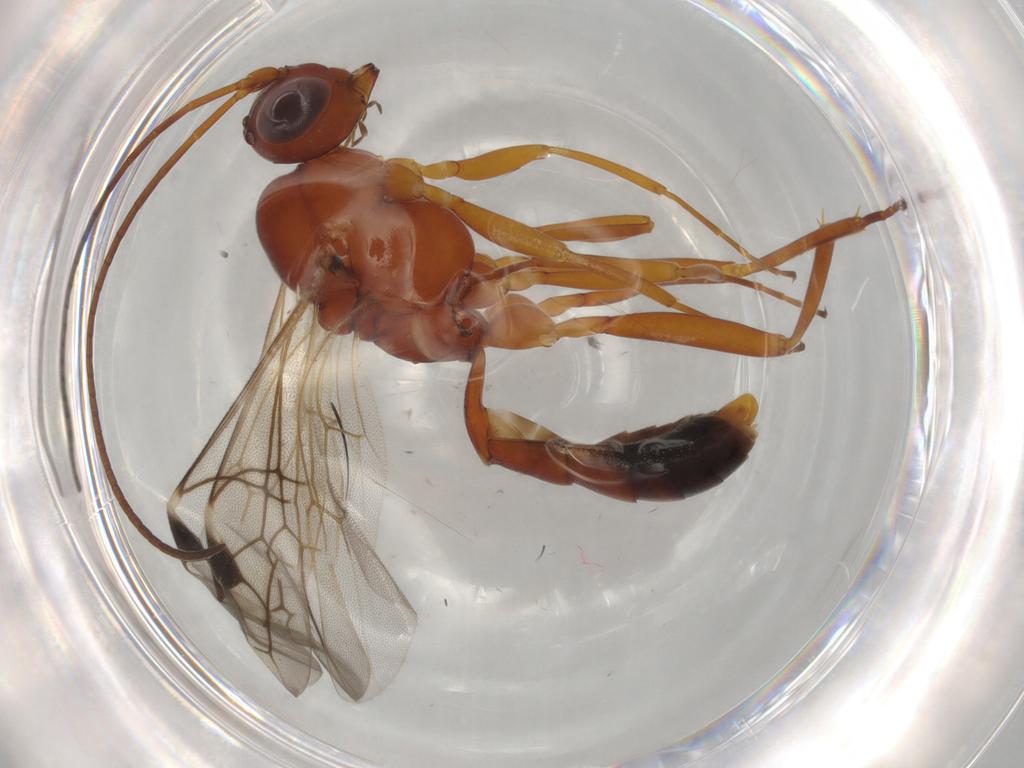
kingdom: Animalia
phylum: Arthropoda
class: Insecta
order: Hymenoptera
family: Ichneumonidae
